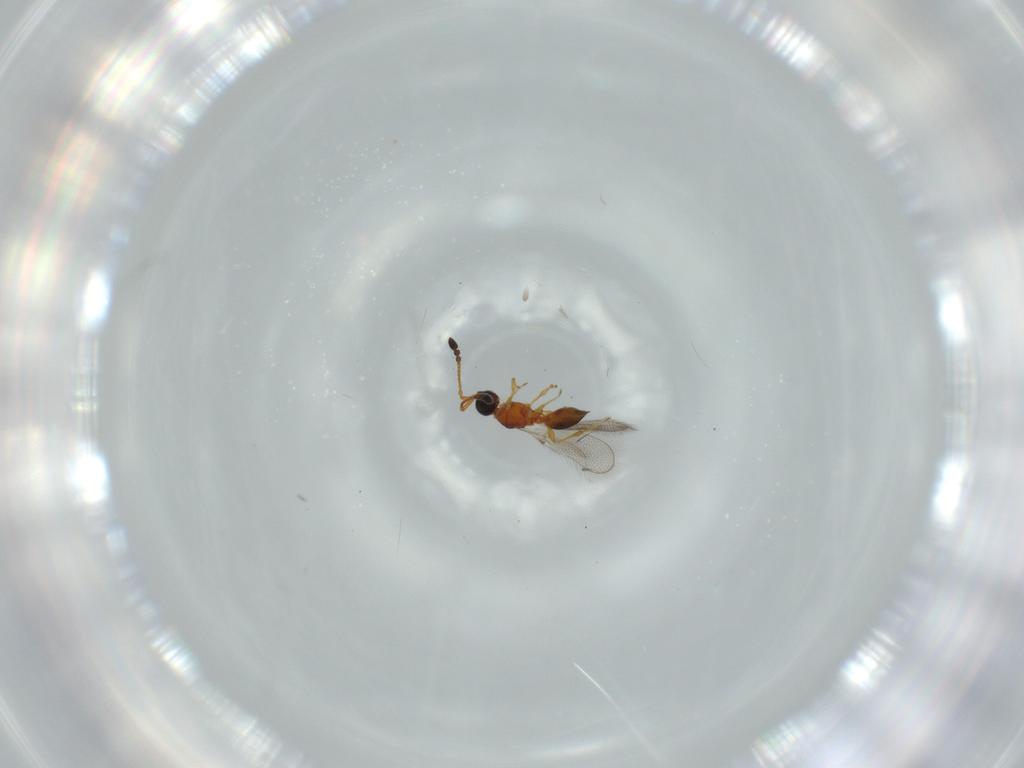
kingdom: Animalia
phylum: Arthropoda
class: Insecta
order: Hymenoptera
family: Diapriidae
